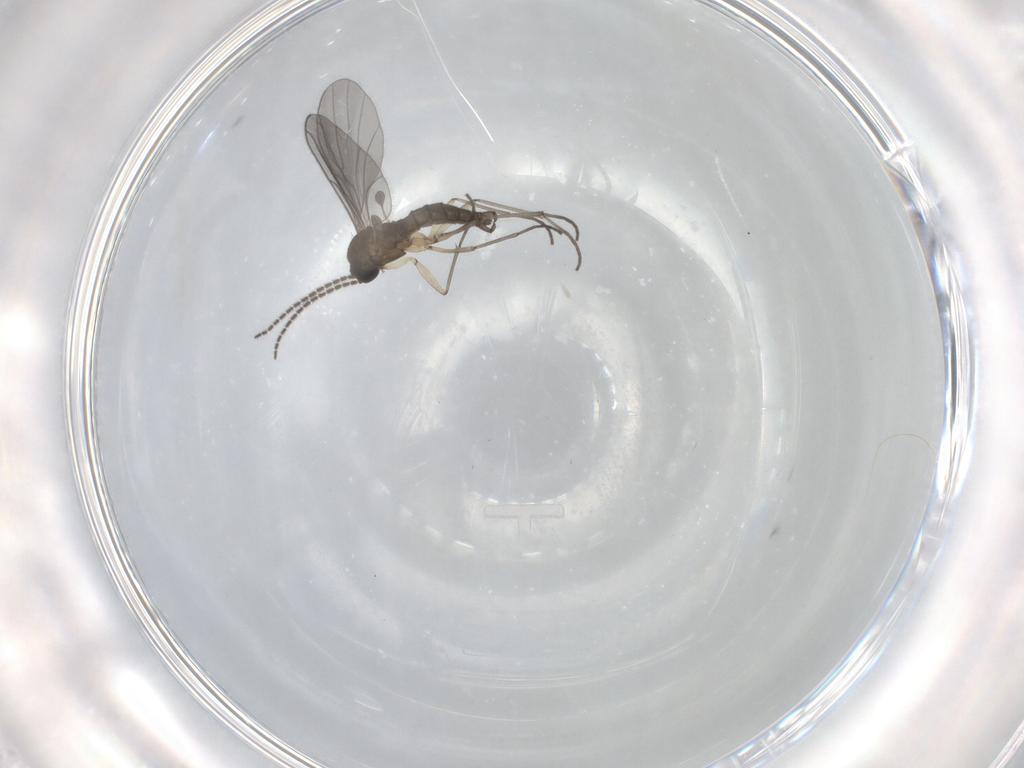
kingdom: Animalia
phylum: Arthropoda
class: Insecta
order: Diptera
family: Sciaridae
